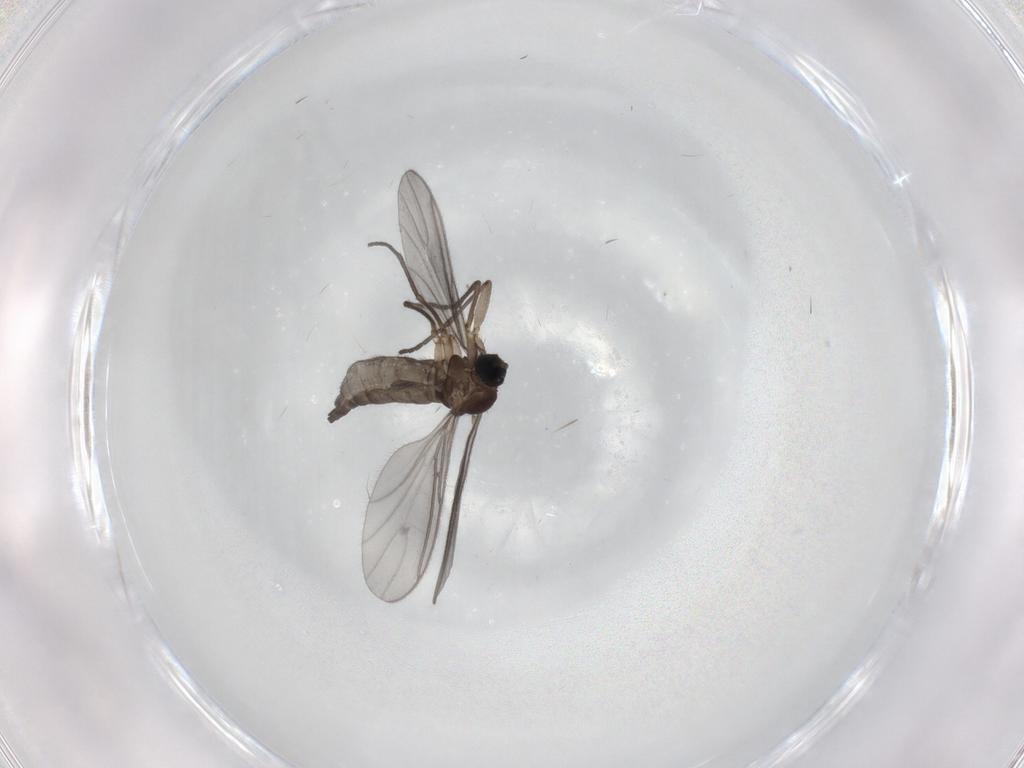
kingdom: Animalia
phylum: Arthropoda
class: Insecta
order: Diptera
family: Sciaridae
